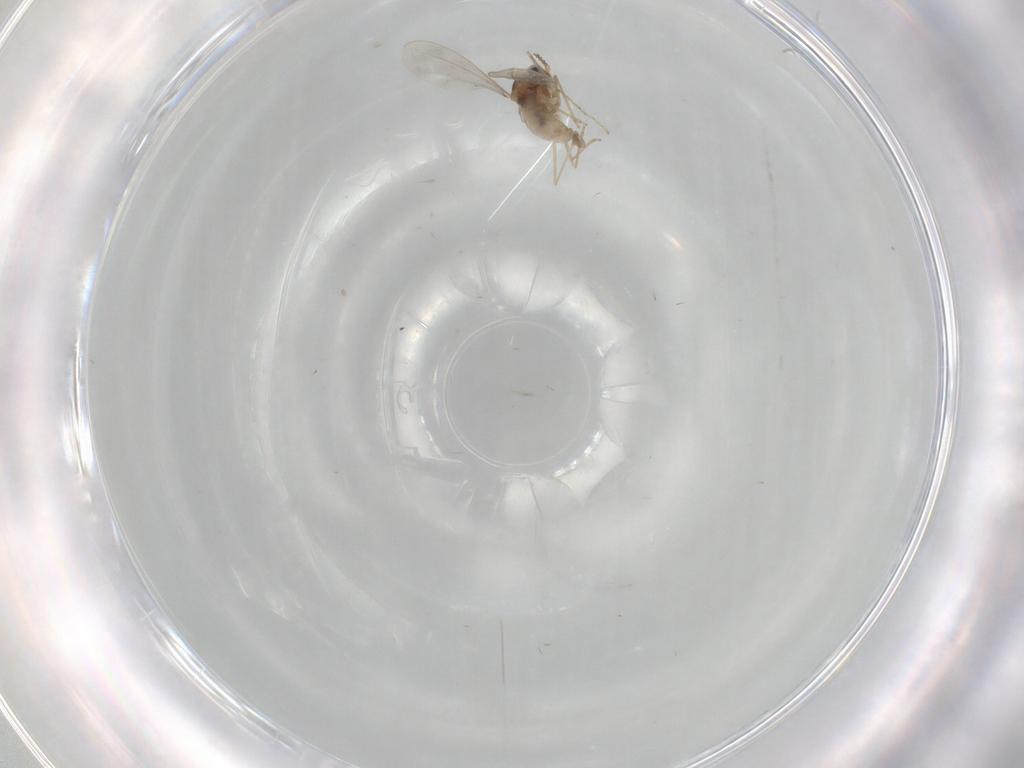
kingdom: Animalia
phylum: Arthropoda
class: Insecta
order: Diptera
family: Cecidomyiidae
